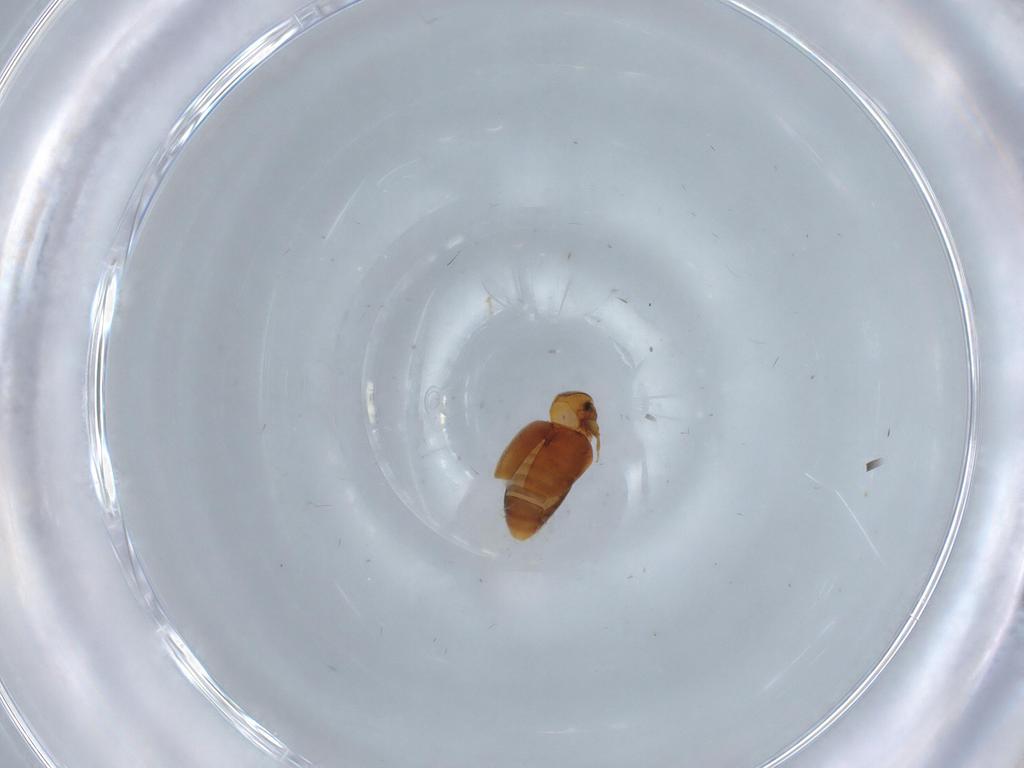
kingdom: Animalia
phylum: Arthropoda
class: Insecta
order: Coleoptera
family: Corylophidae
